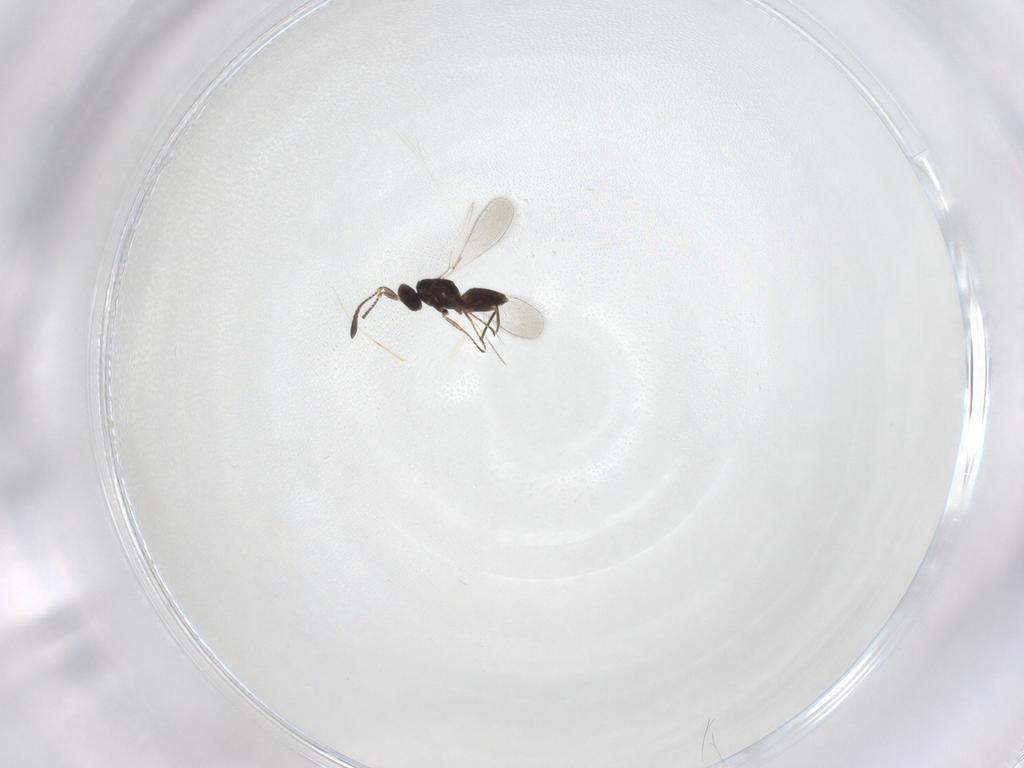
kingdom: Animalia
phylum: Arthropoda
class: Insecta
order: Hymenoptera
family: Mymaridae
